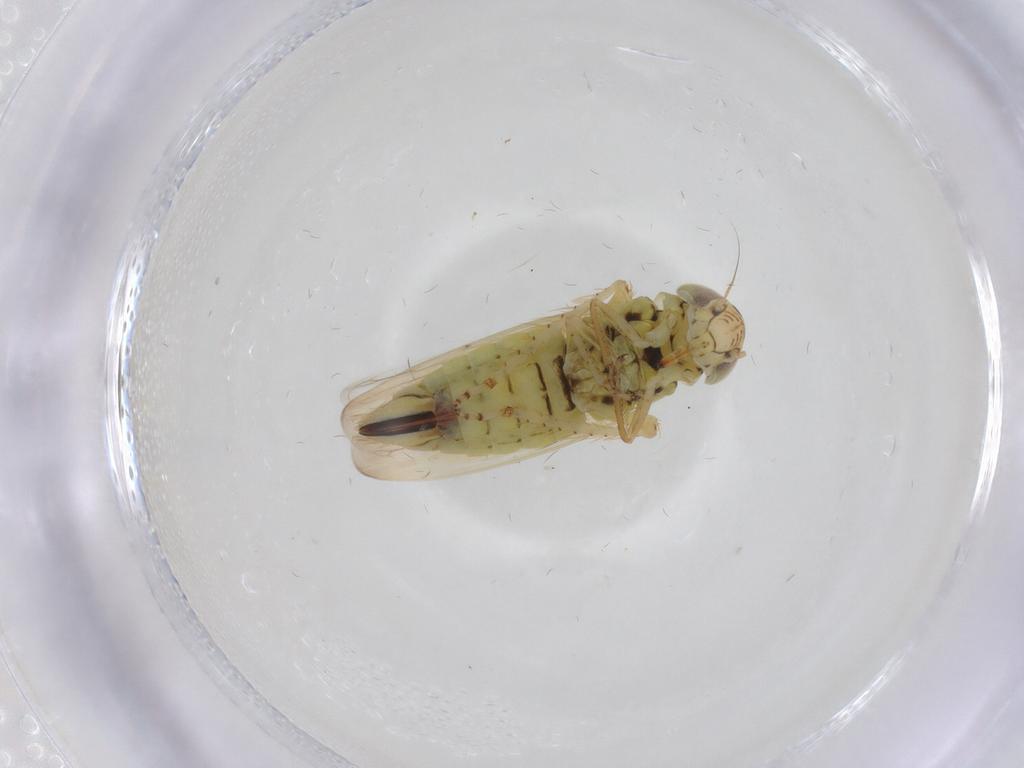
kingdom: Animalia
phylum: Arthropoda
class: Insecta
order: Hemiptera
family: Cicadellidae
